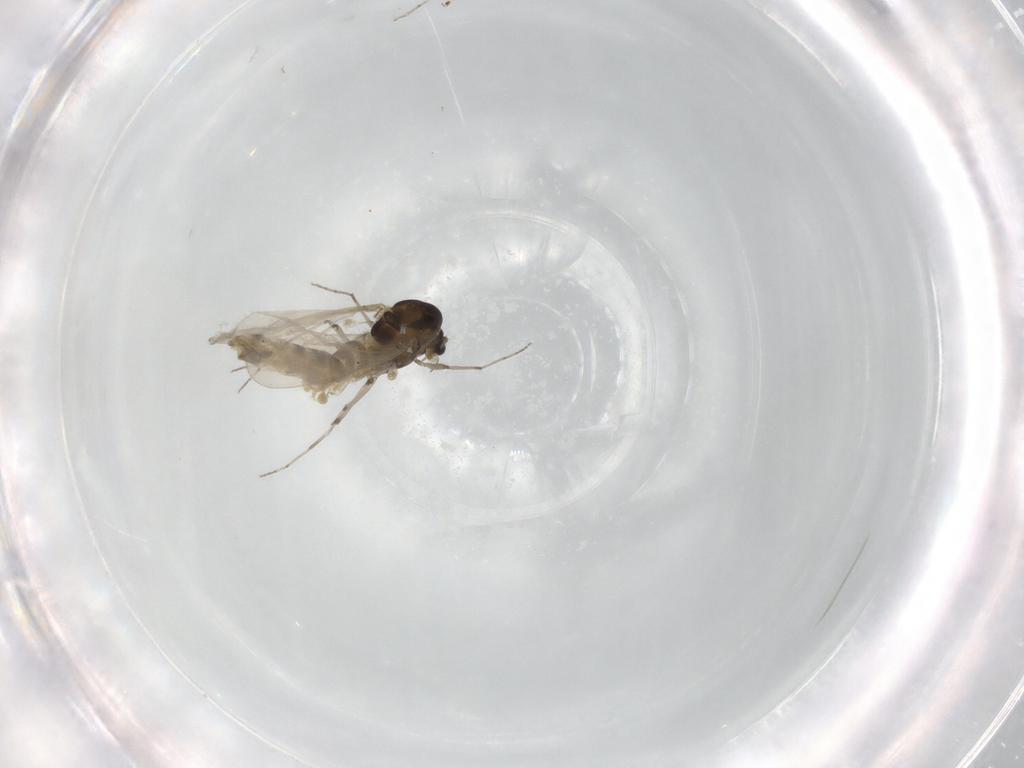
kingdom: Animalia
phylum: Arthropoda
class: Insecta
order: Diptera
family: Chironomidae
